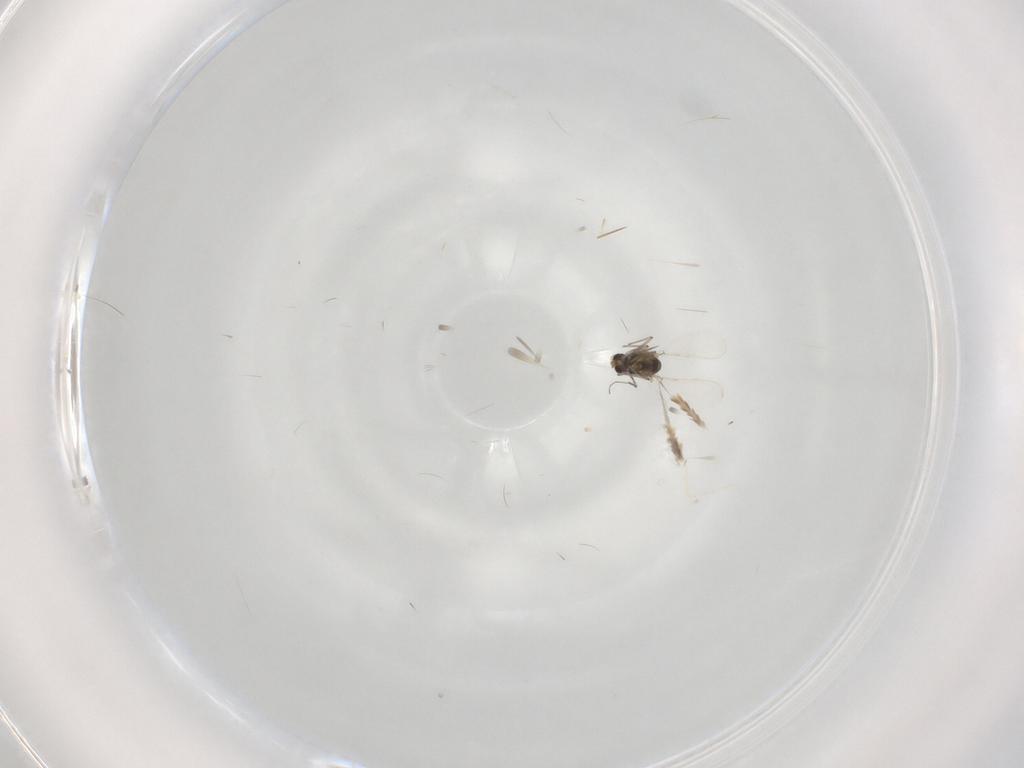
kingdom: Animalia
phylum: Arthropoda
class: Insecta
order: Diptera
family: Chironomidae
